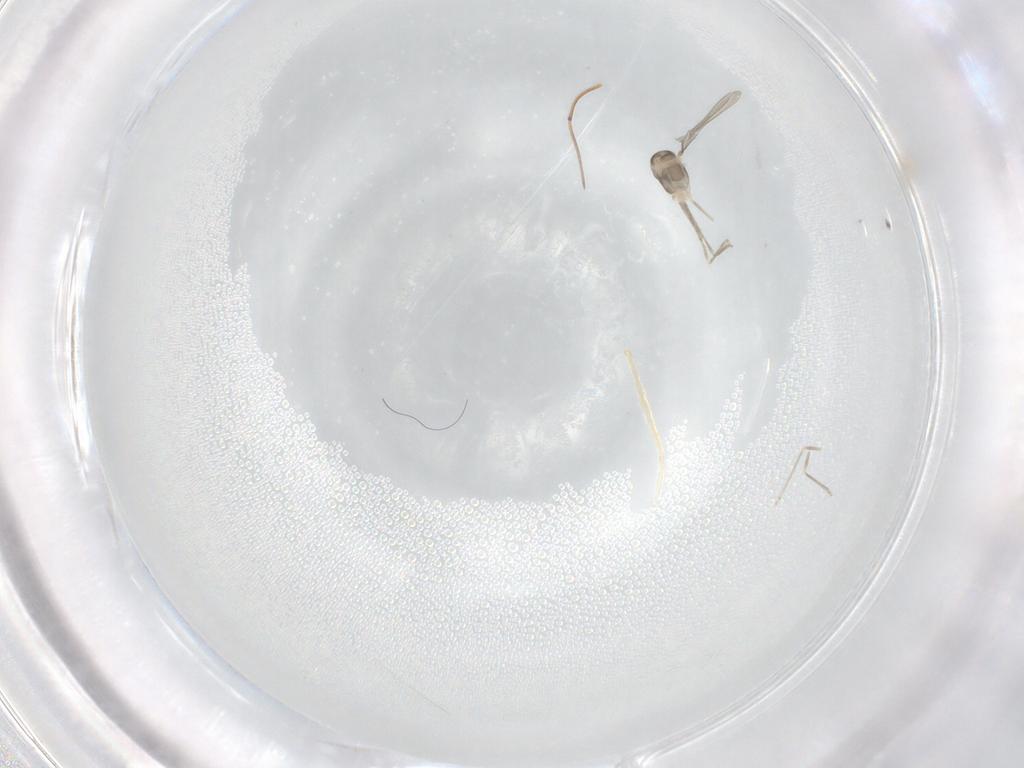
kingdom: Animalia
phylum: Arthropoda
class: Insecta
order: Diptera
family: Cecidomyiidae
